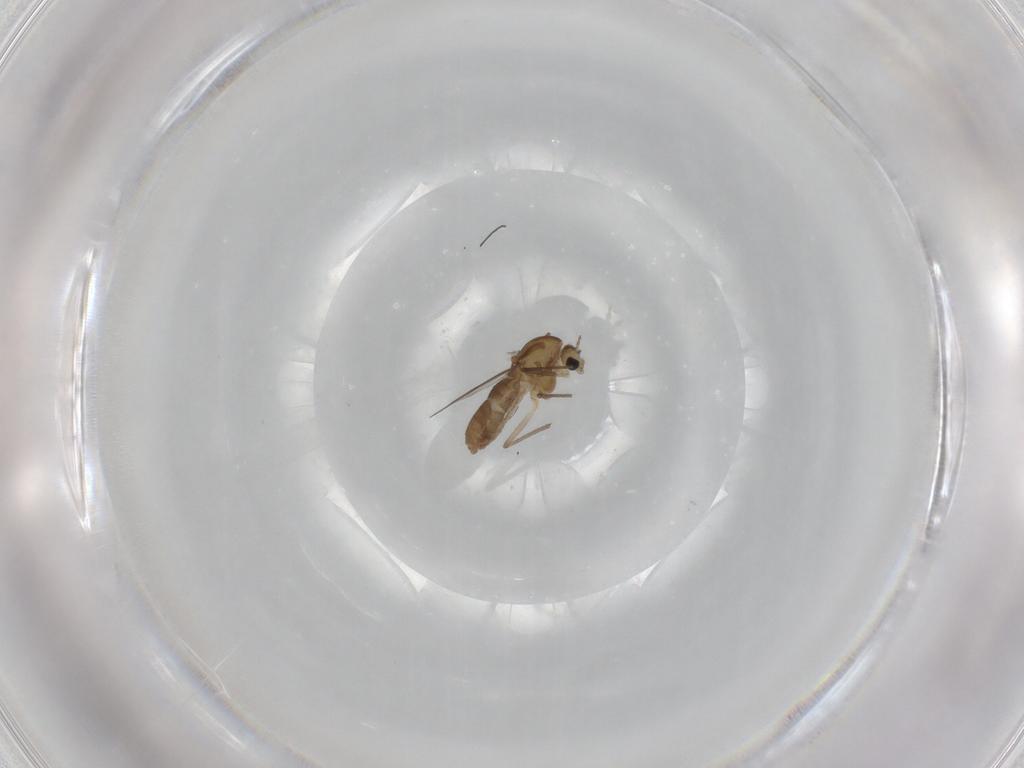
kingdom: Animalia
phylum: Arthropoda
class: Insecta
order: Diptera
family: Chironomidae
